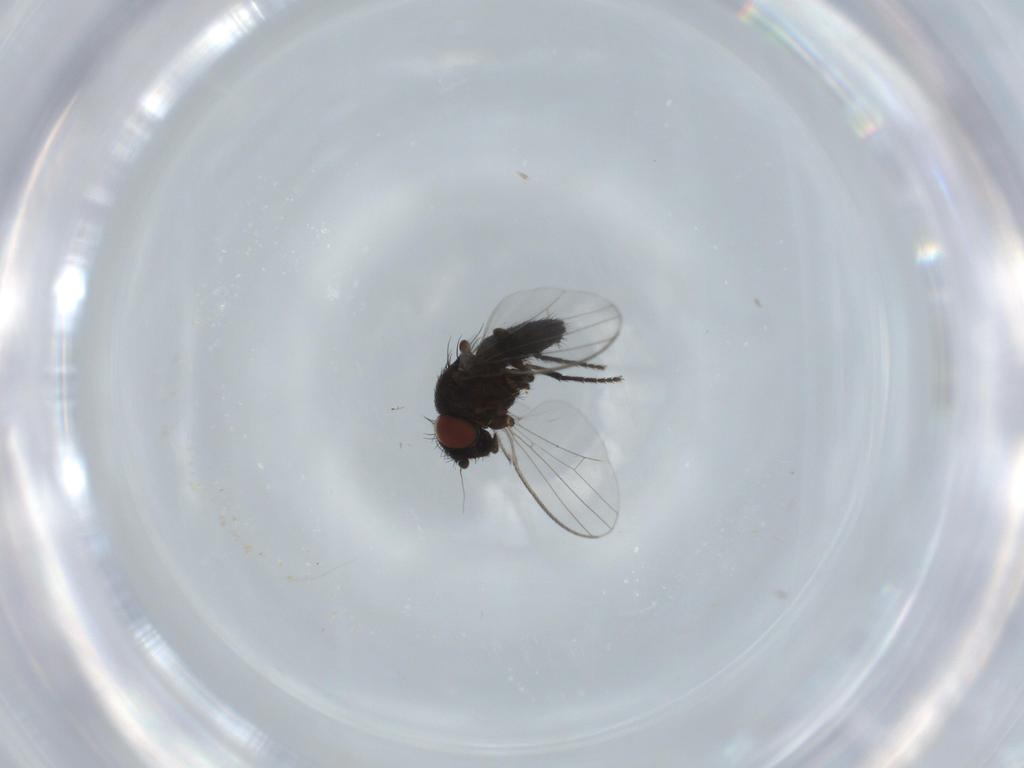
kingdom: Animalia
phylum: Arthropoda
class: Insecta
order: Diptera
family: Milichiidae
